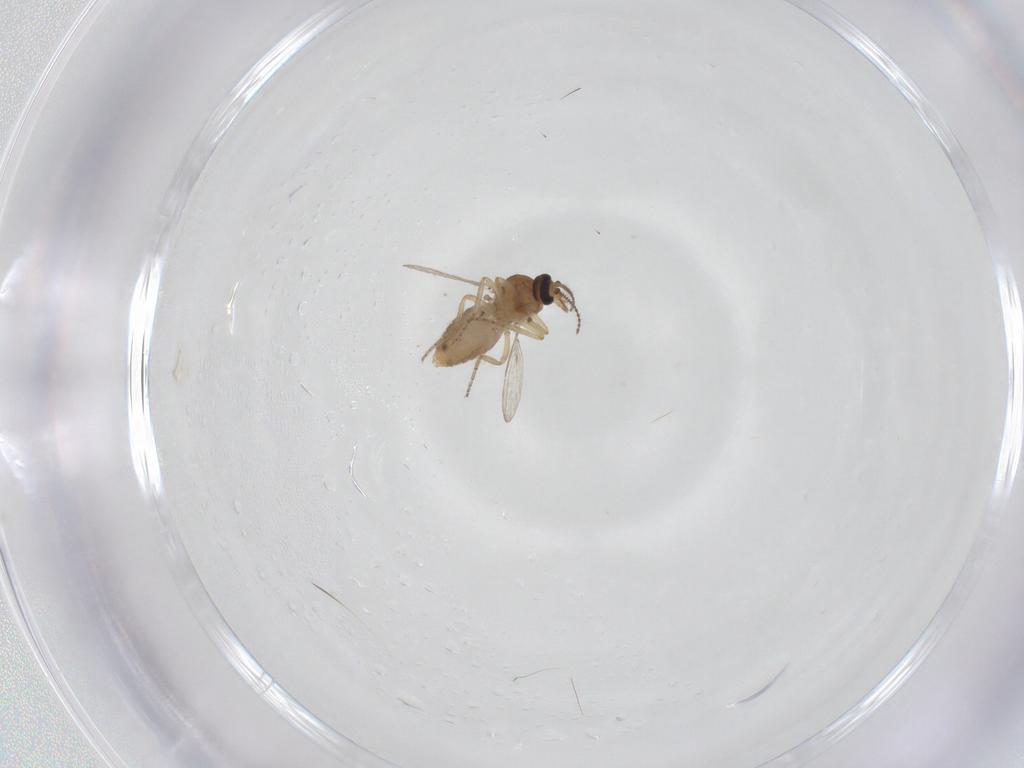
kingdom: Animalia
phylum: Arthropoda
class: Insecta
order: Diptera
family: Ceratopogonidae
